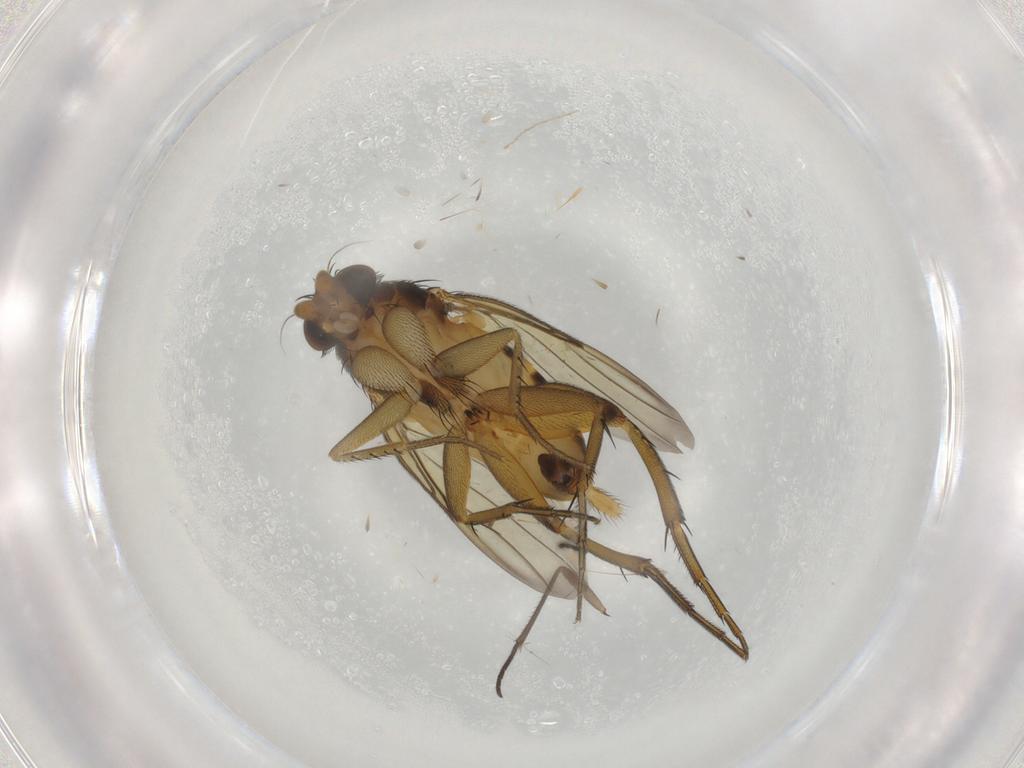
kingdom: Animalia
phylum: Arthropoda
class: Insecta
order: Diptera
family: Phoridae
